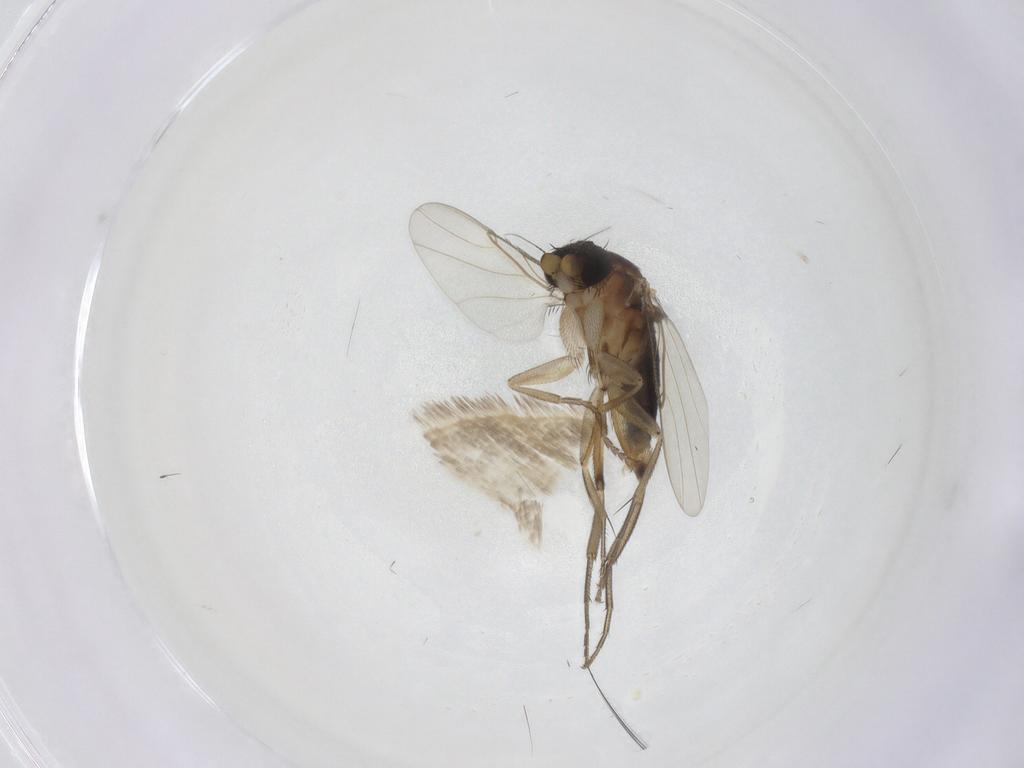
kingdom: Animalia
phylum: Arthropoda
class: Insecta
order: Diptera
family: Phoridae
